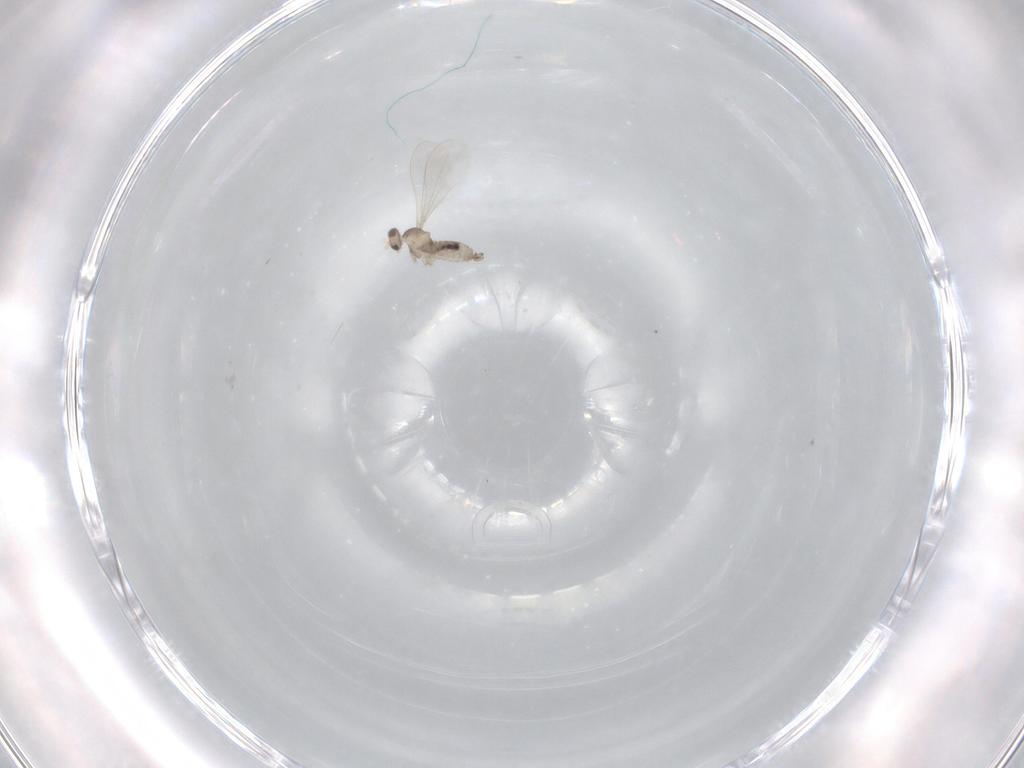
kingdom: Animalia
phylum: Arthropoda
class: Insecta
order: Diptera
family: Cecidomyiidae
